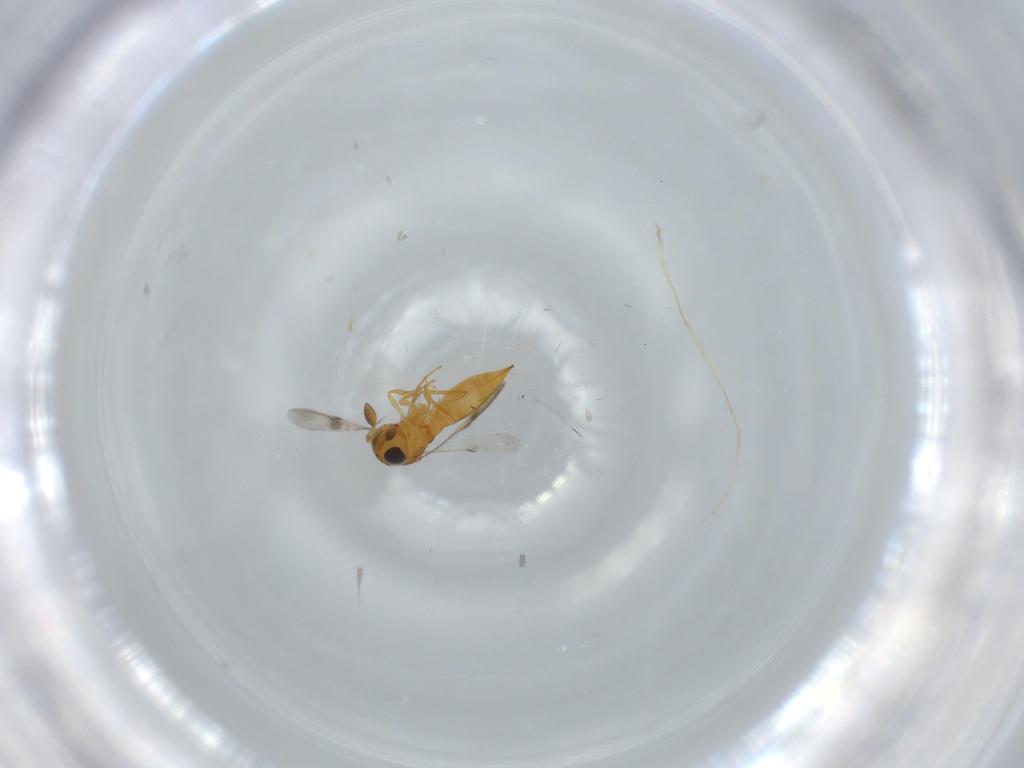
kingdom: Animalia
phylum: Arthropoda
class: Insecta
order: Hymenoptera
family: Scelionidae
